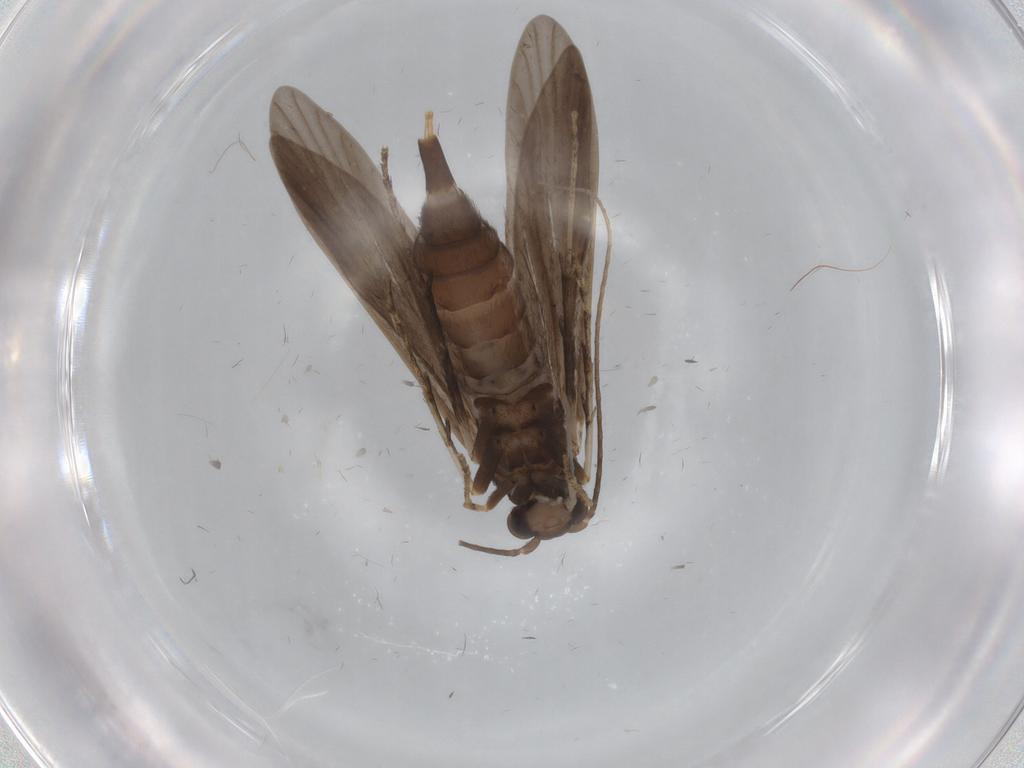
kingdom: Animalia
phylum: Arthropoda
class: Insecta
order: Trichoptera
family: Xiphocentronidae
